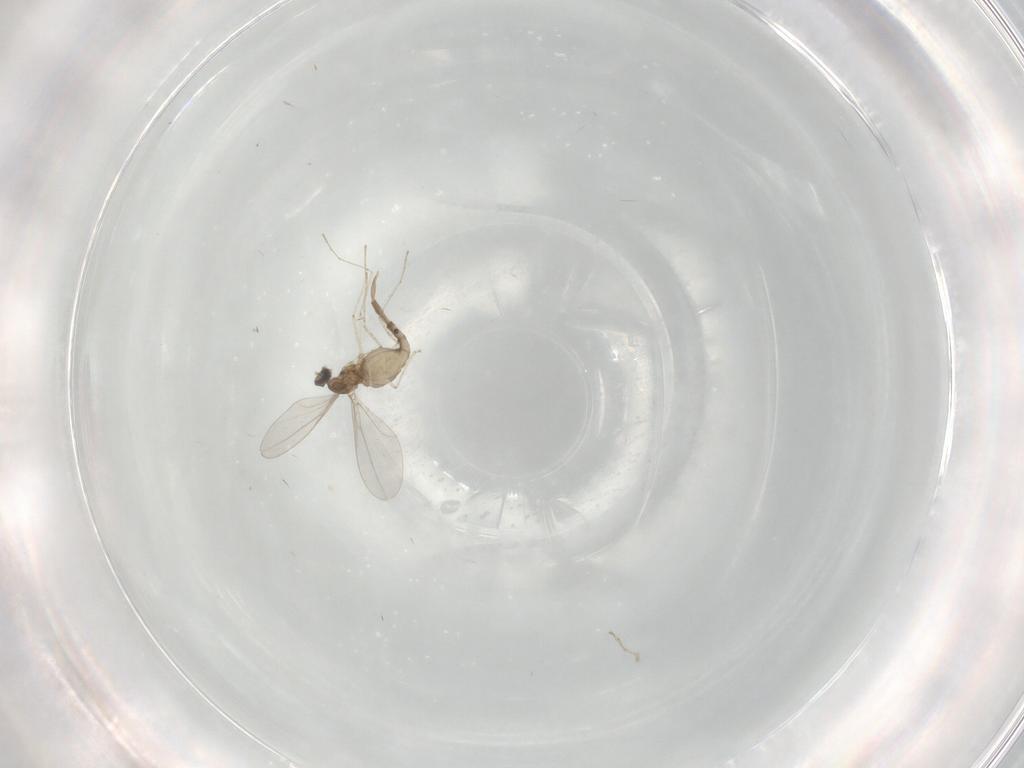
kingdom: Animalia
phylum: Arthropoda
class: Insecta
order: Diptera
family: Cecidomyiidae
